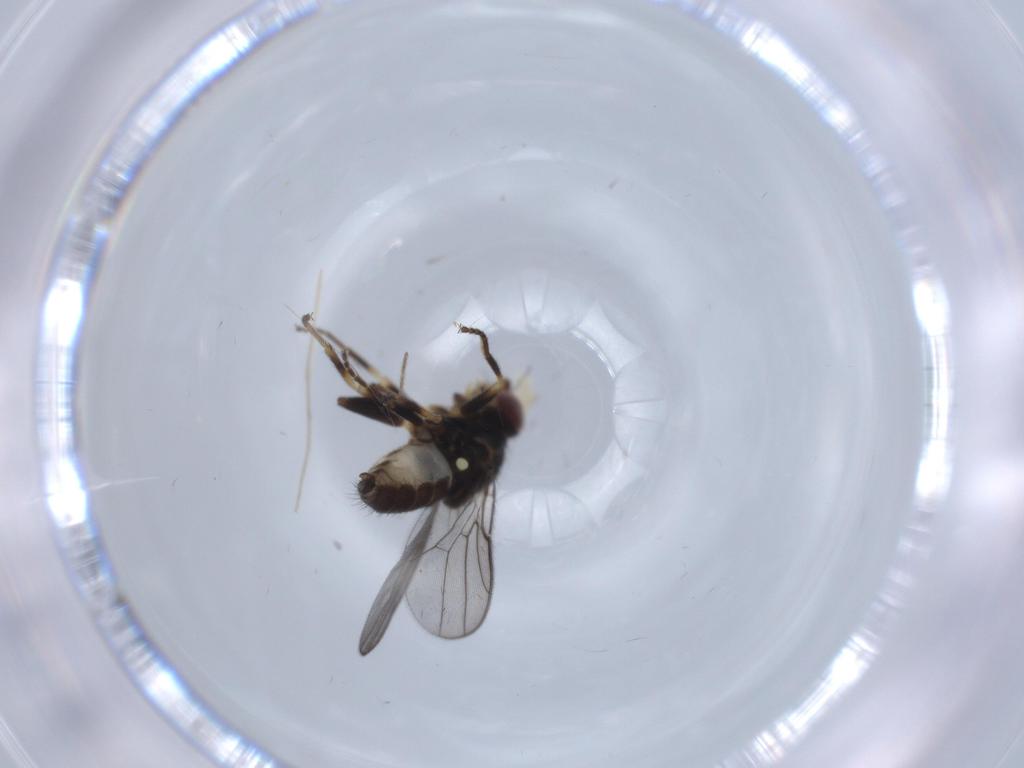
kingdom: Animalia
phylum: Arthropoda
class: Insecta
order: Diptera
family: Chloropidae
